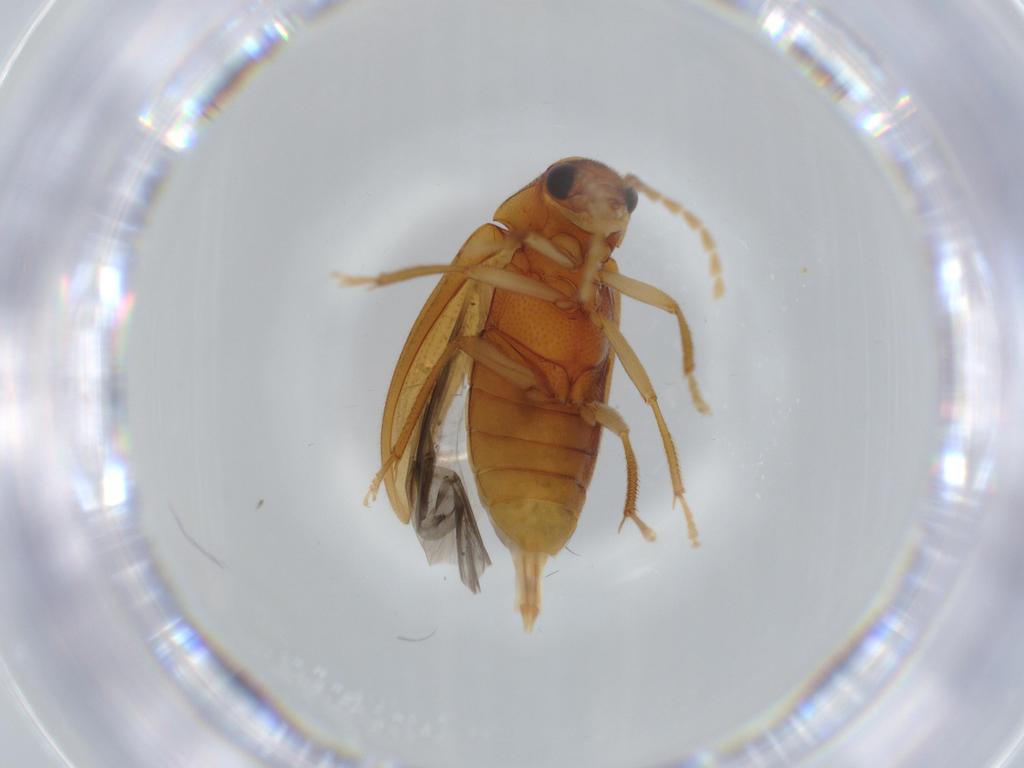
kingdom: Animalia
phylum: Arthropoda
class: Insecta
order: Coleoptera
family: Ptilodactylidae
